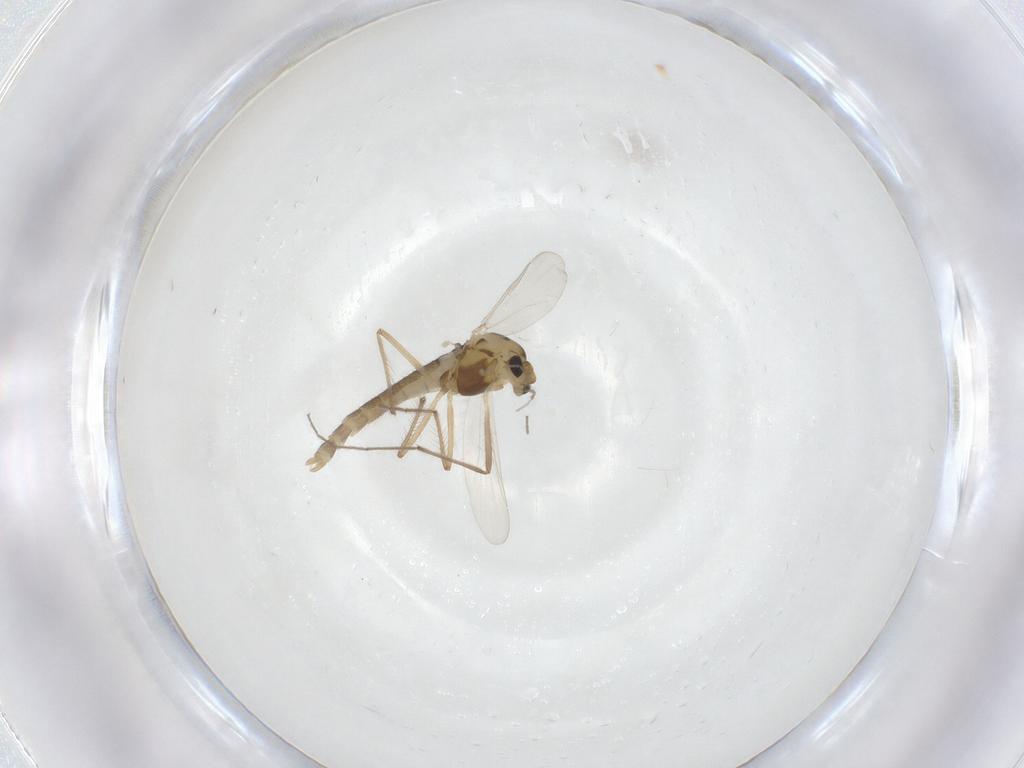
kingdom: Animalia
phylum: Arthropoda
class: Insecta
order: Diptera
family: Chironomidae
